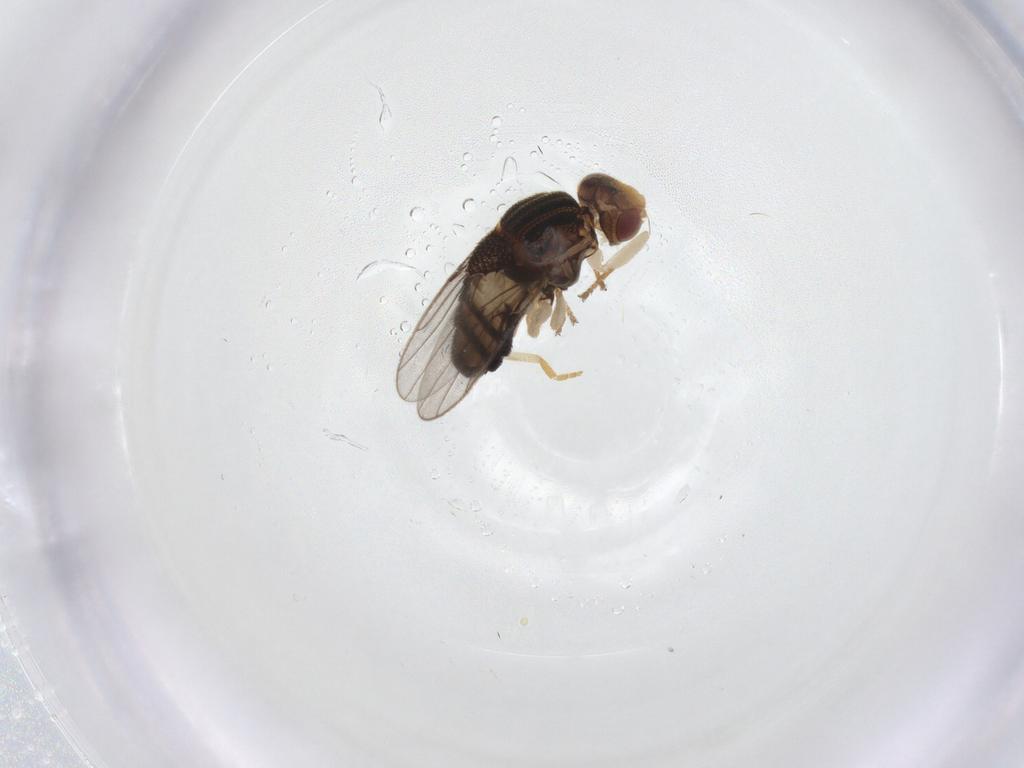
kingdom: Animalia
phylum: Arthropoda
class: Insecta
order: Diptera
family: Chloropidae
